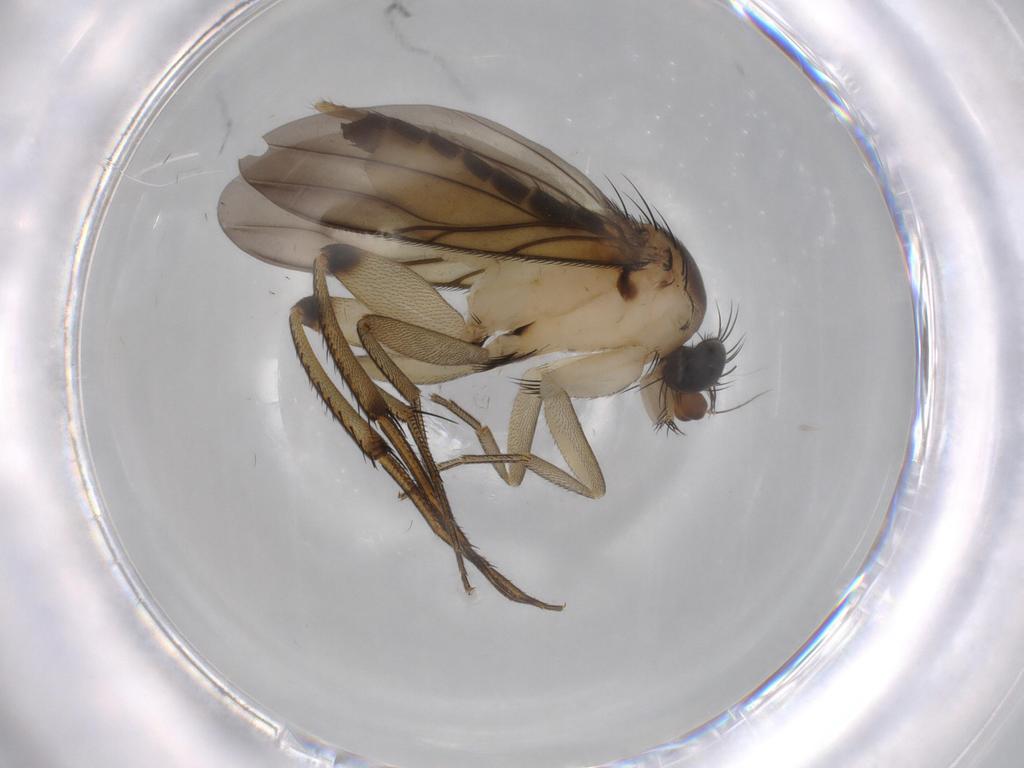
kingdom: Animalia
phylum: Arthropoda
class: Insecta
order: Diptera
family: Phoridae
